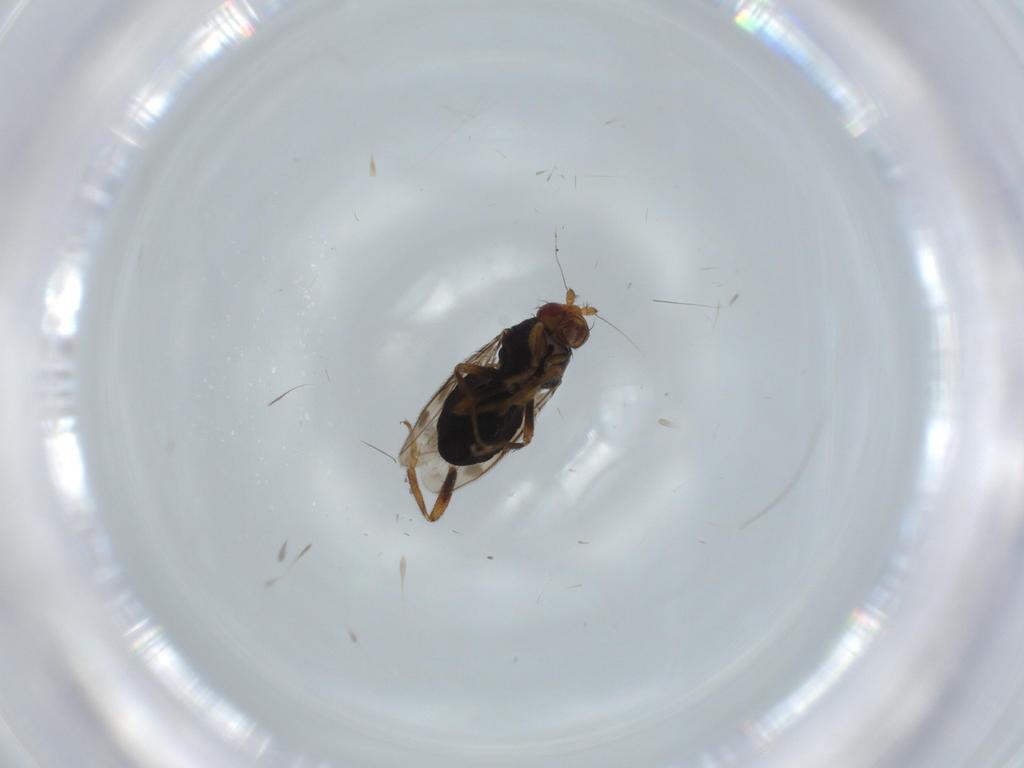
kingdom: Animalia
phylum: Arthropoda
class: Insecta
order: Diptera
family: Sphaeroceridae
